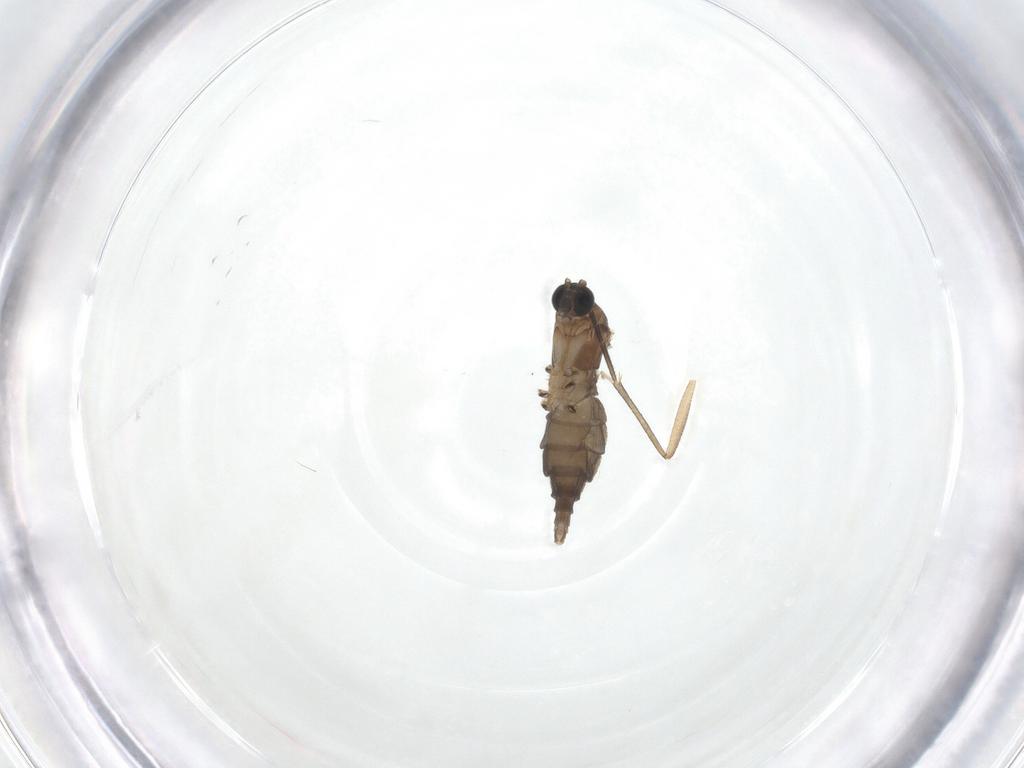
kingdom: Animalia
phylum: Arthropoda
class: Insecta
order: Diptera
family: Sciaridae
